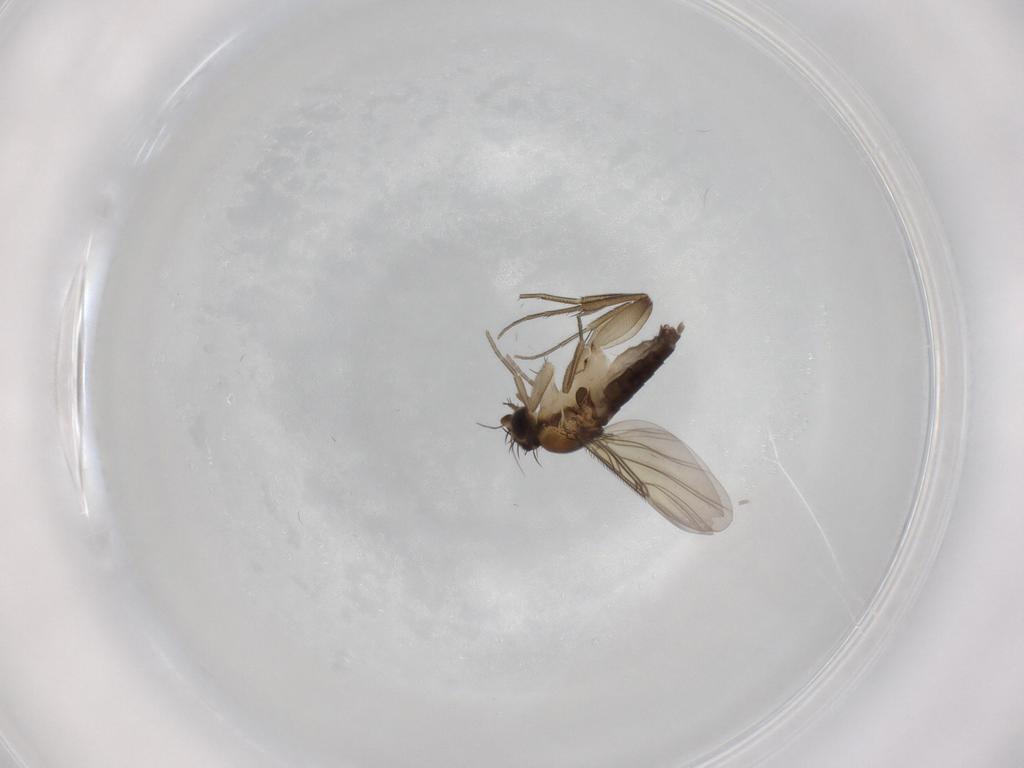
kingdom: Animalia
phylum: Arthropoda
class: Insecta
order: Diptera
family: Phoridae
